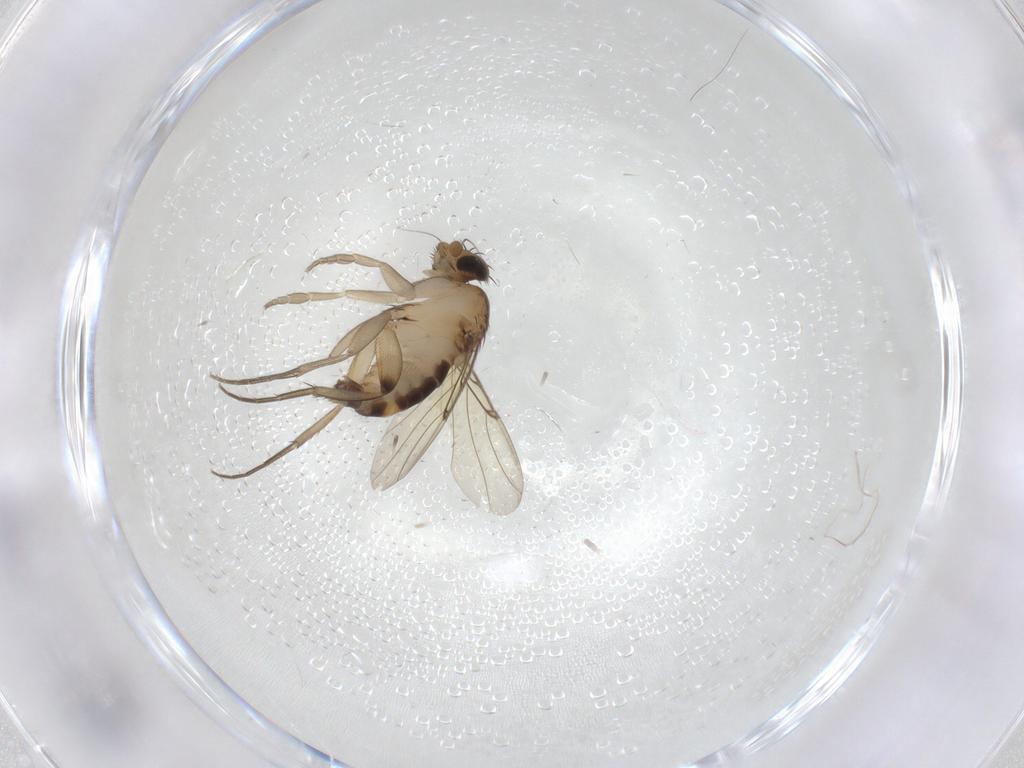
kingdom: Animalia
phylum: Arthropoda
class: Insecta
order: Diptera
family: Phoridae
